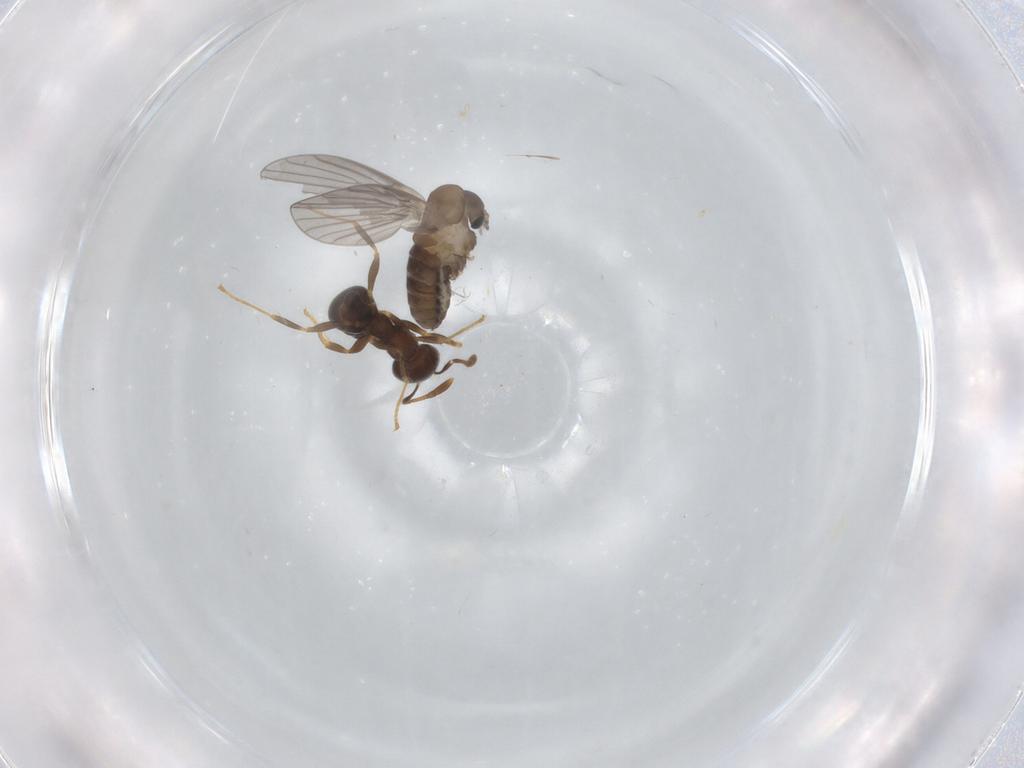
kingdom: Animalia
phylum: Arthropoda
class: Insecta
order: Diptera
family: Psychodidae
